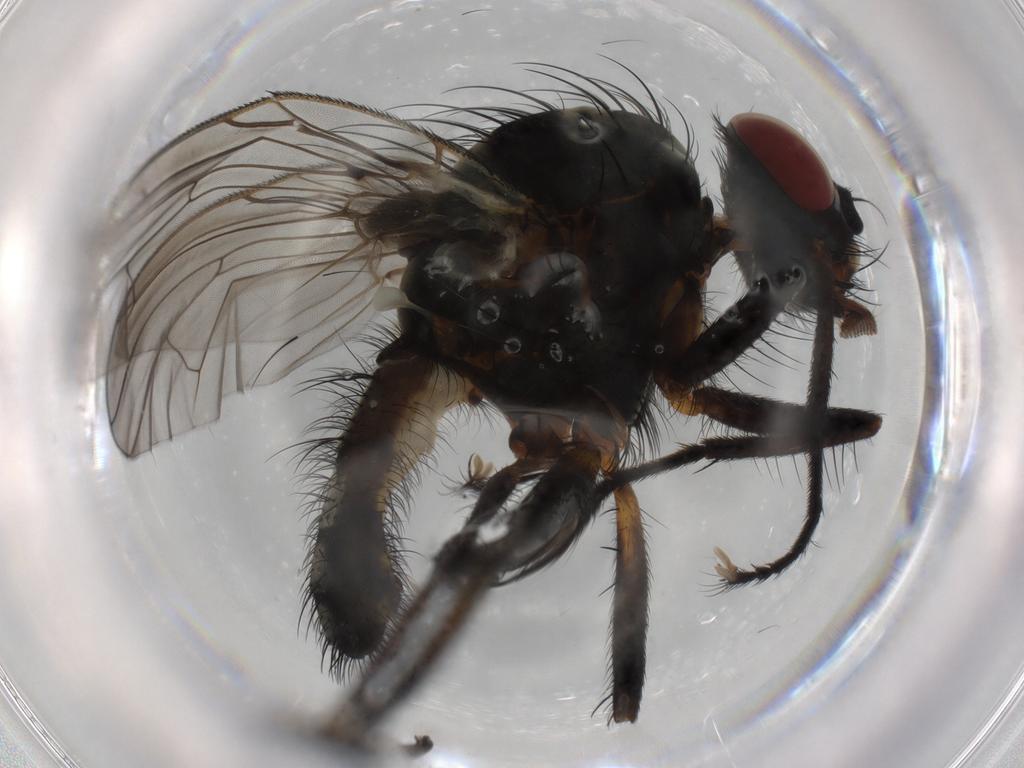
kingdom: Animalia
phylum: Arthropoda
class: Insecta
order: Diptera
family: Anthomyiidae
